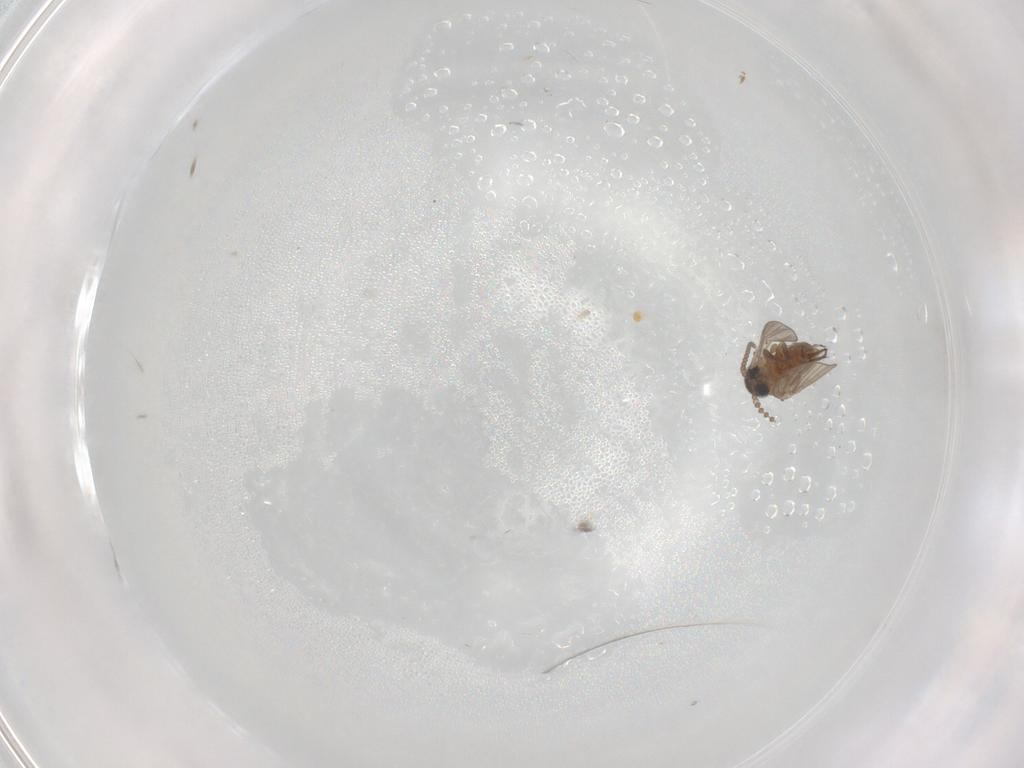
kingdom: Animalia
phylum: Arthropoda
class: Insecta
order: Diptera
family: Psychodidae
